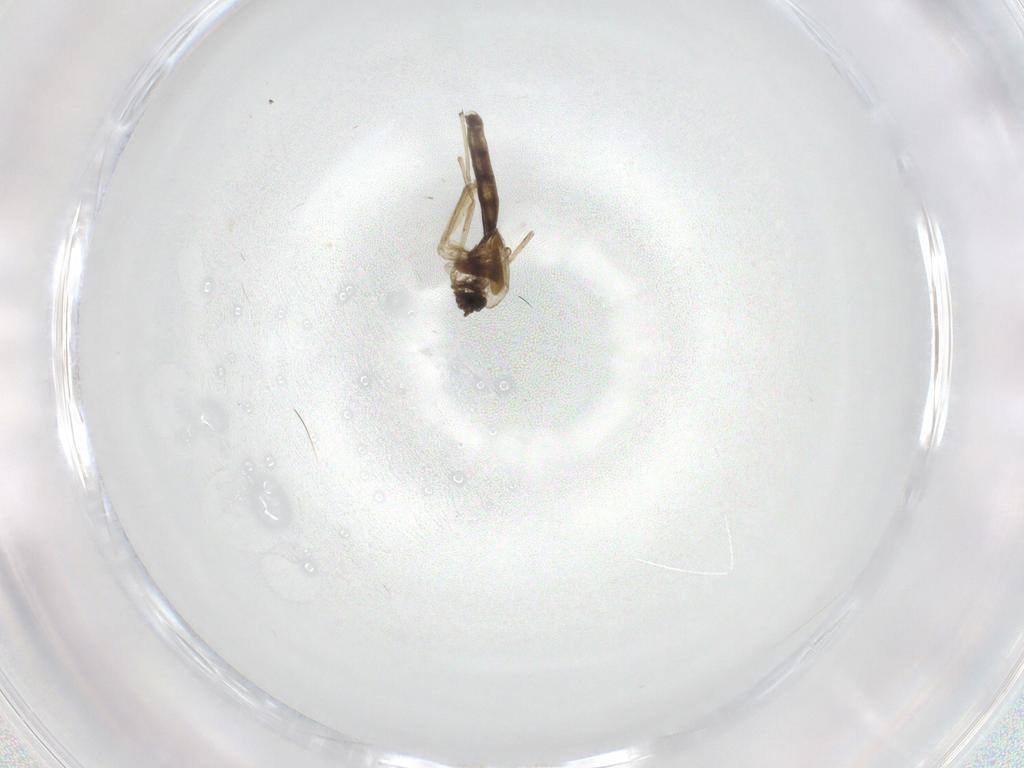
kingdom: Animalia
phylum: Arthropoda
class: Insecta
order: Diptera
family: Chironomidae
